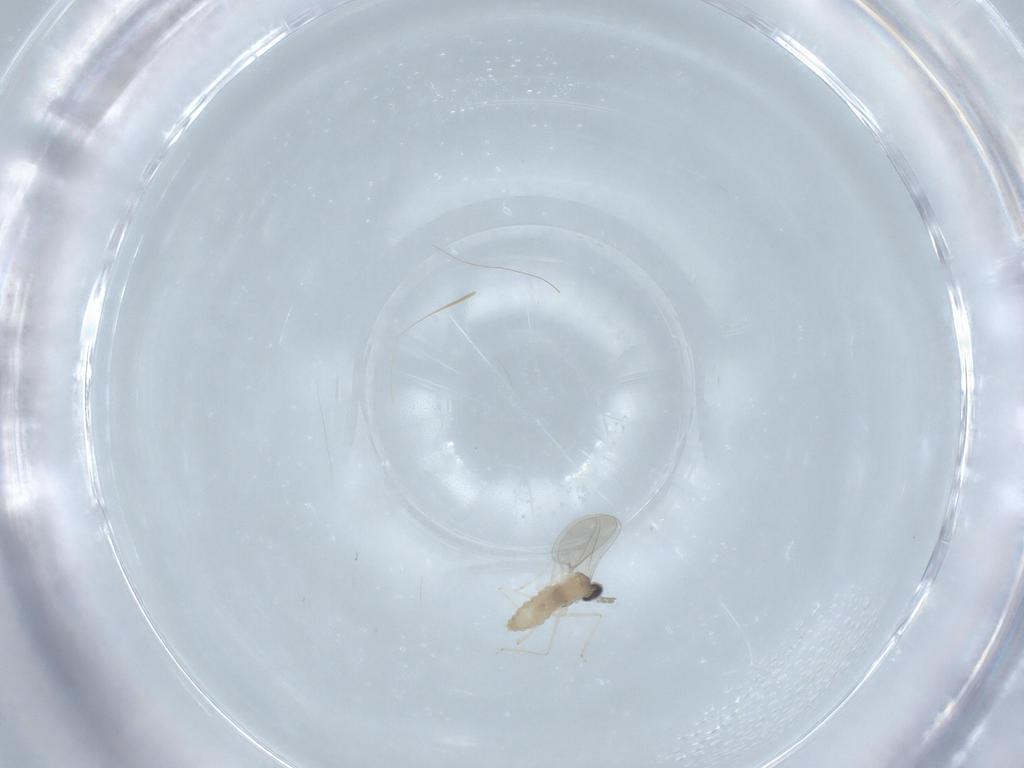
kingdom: Animalia
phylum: Arthropoda
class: Insecta
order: Diptera
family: Cecidomyiidae
